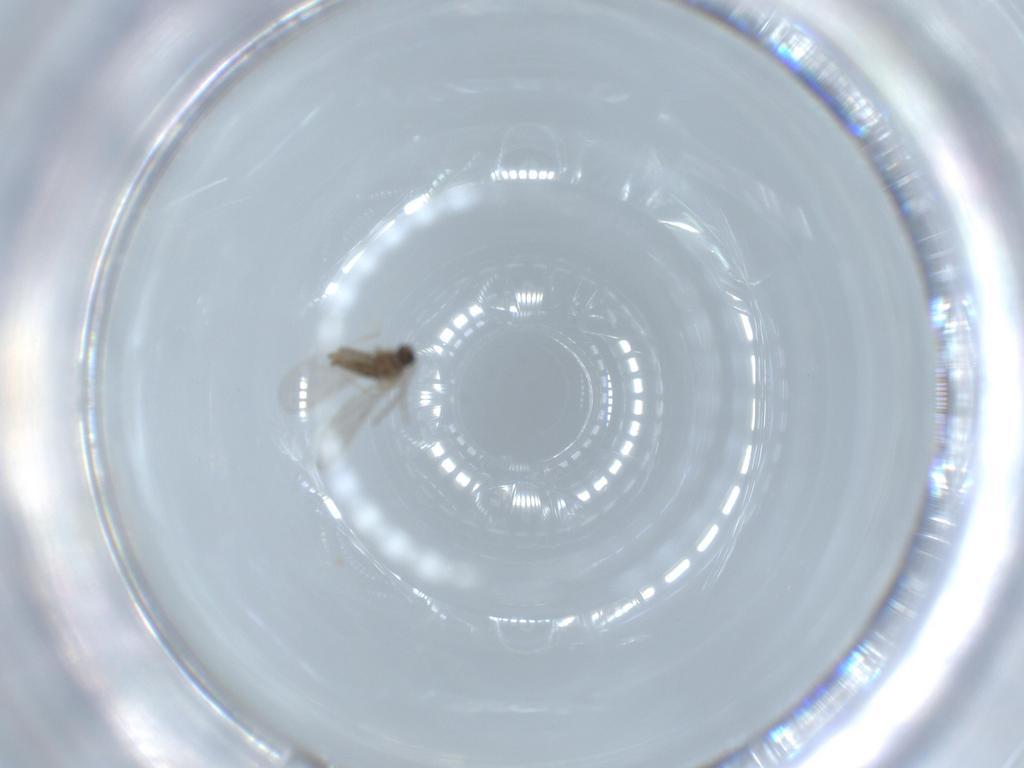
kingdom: Animalia
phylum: Arthropoda
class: Insecta
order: Diptera
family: Cecidomyiidae
